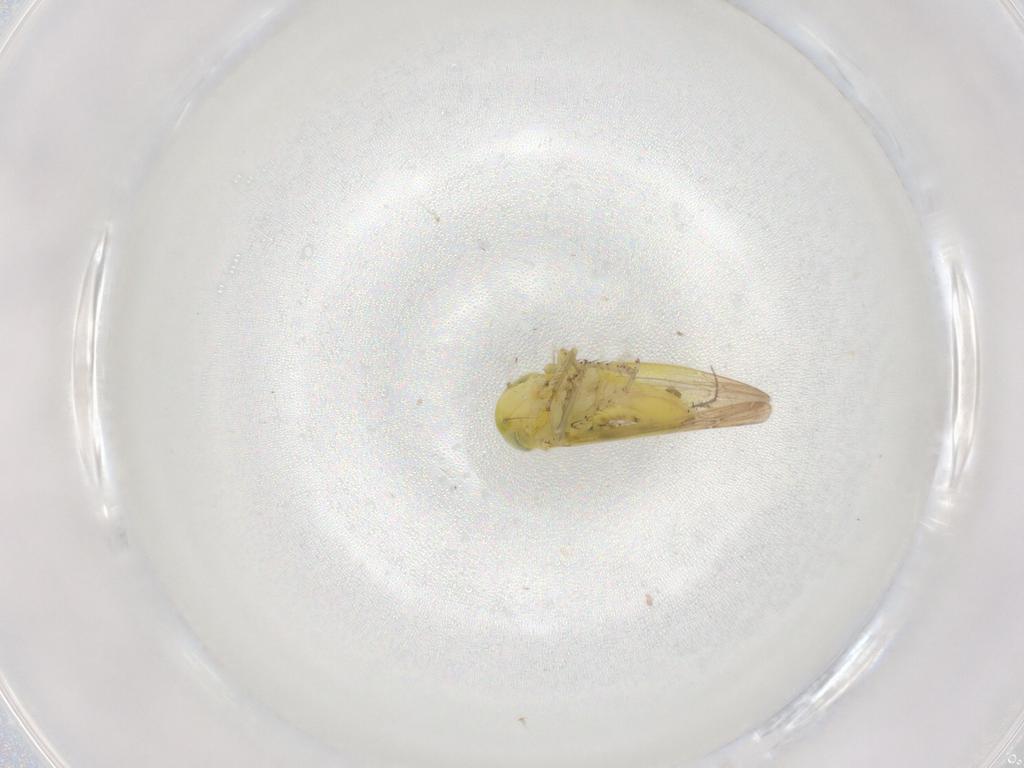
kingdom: Animalia
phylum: Arthropoda
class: Insecta
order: Hemiptera
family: Cicadellidae
